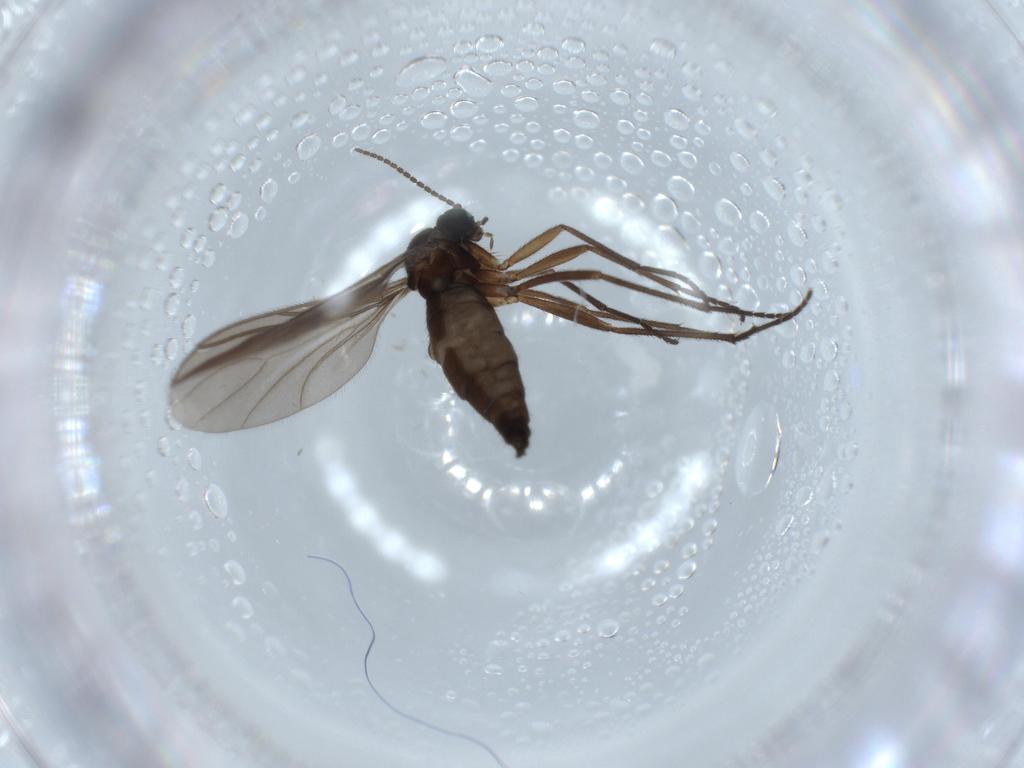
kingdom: Animalia
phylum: Arthropoda
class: Insecta
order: Diptera
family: Sciaridae
